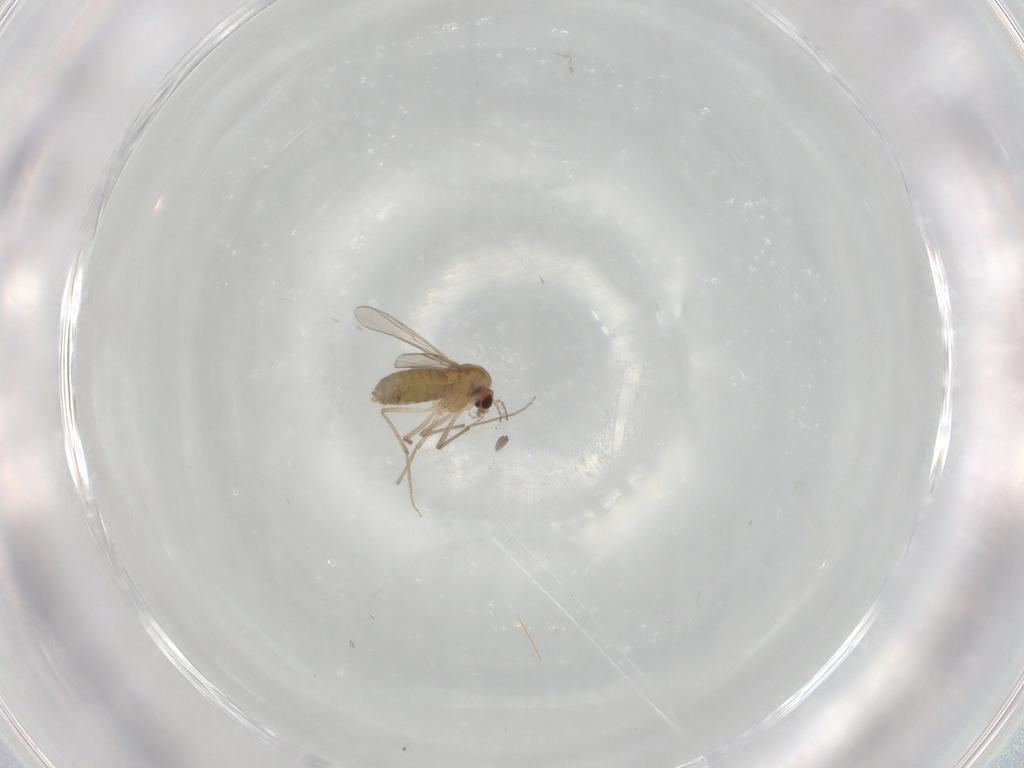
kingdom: Animalia
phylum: Arthropoda
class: Insecta
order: Diptera
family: Chironomidae
